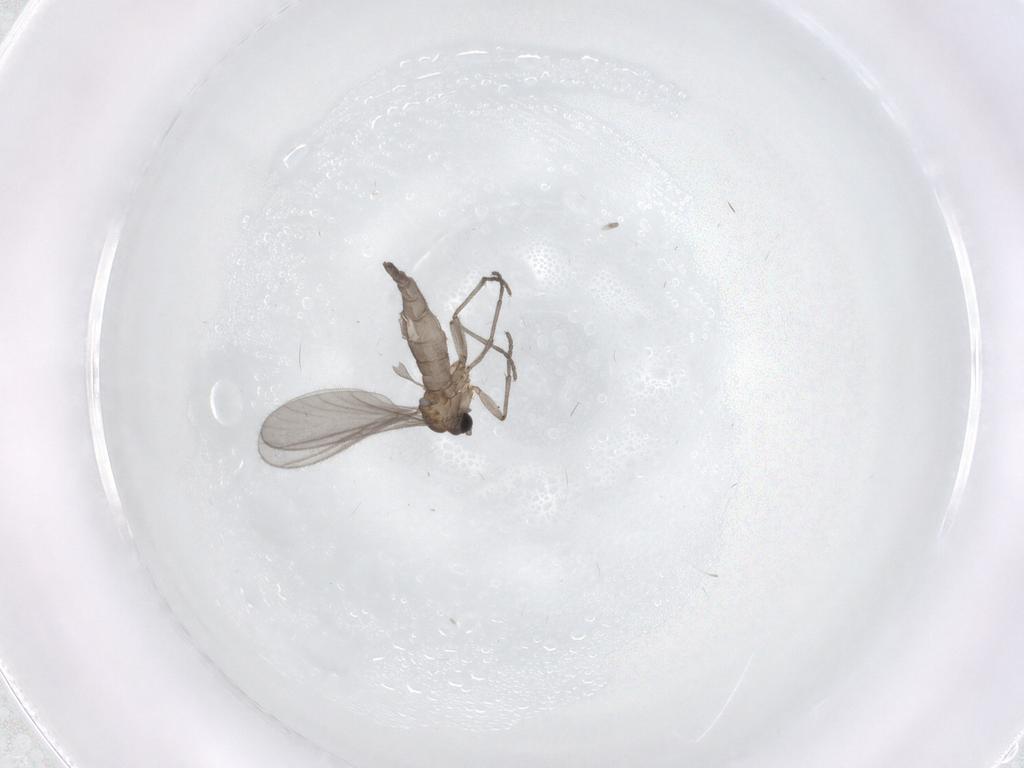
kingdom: Animalia
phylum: Arthropoda
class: Insecta
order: Diptera
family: Sciaridae
